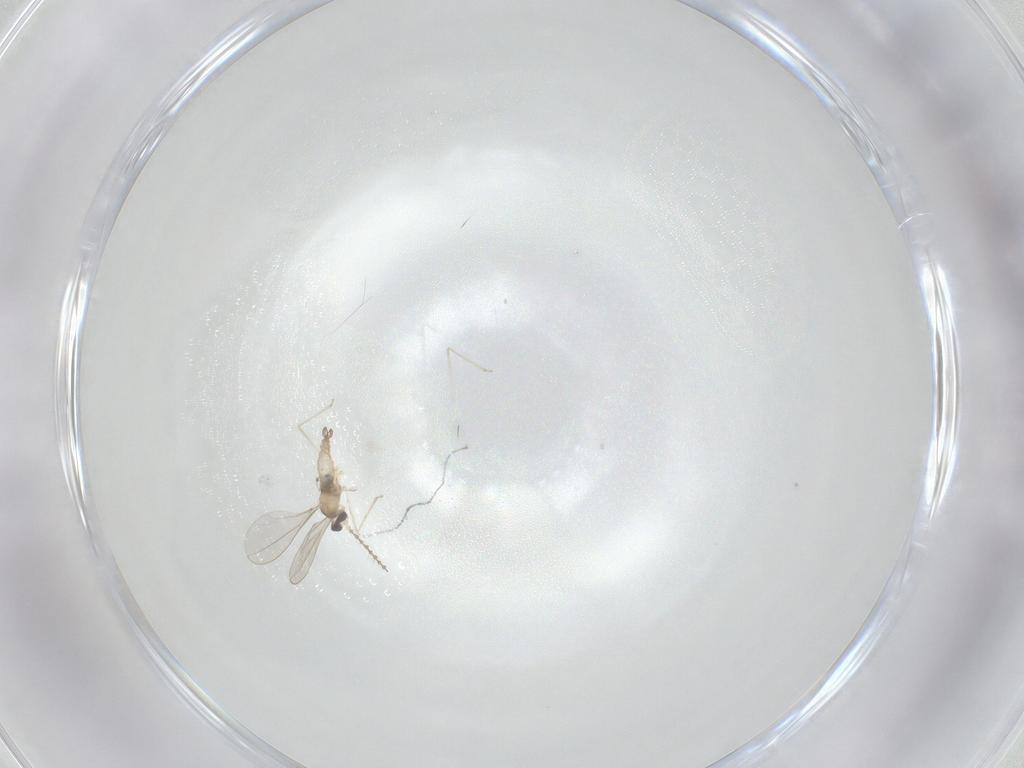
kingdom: Animalia
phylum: Arthropoda
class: Insecta
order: Diptera
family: Cecidomyiidae
